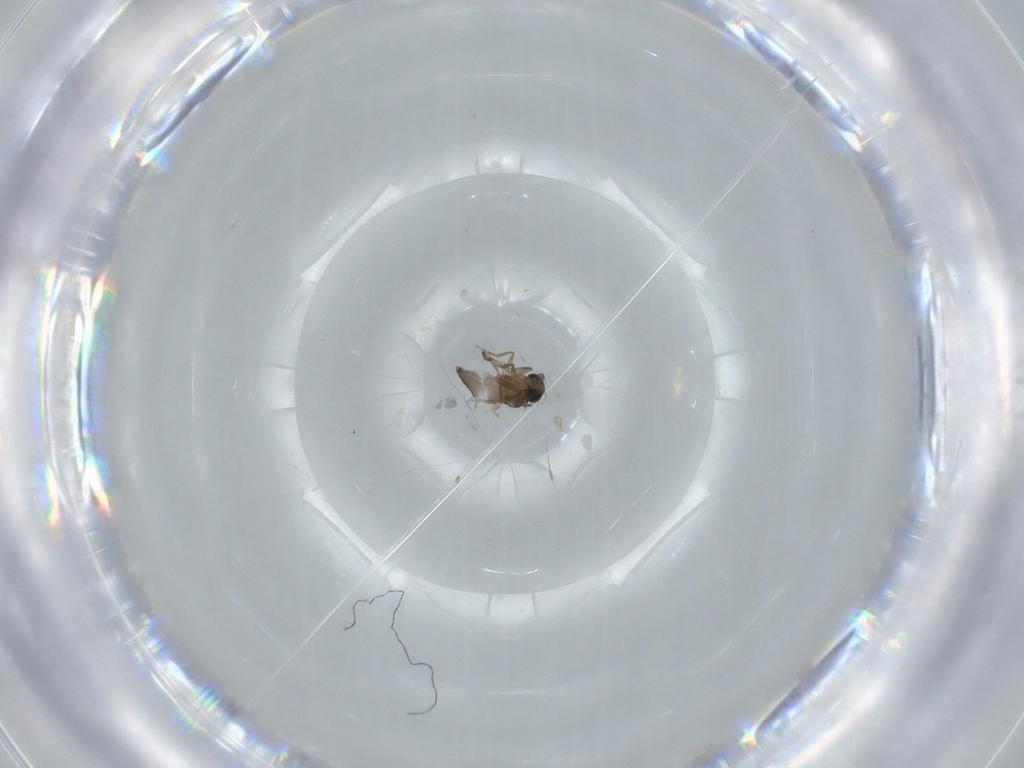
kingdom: Animalia
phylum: Arthropoda
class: Insecta
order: Diptera
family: Phoridae
